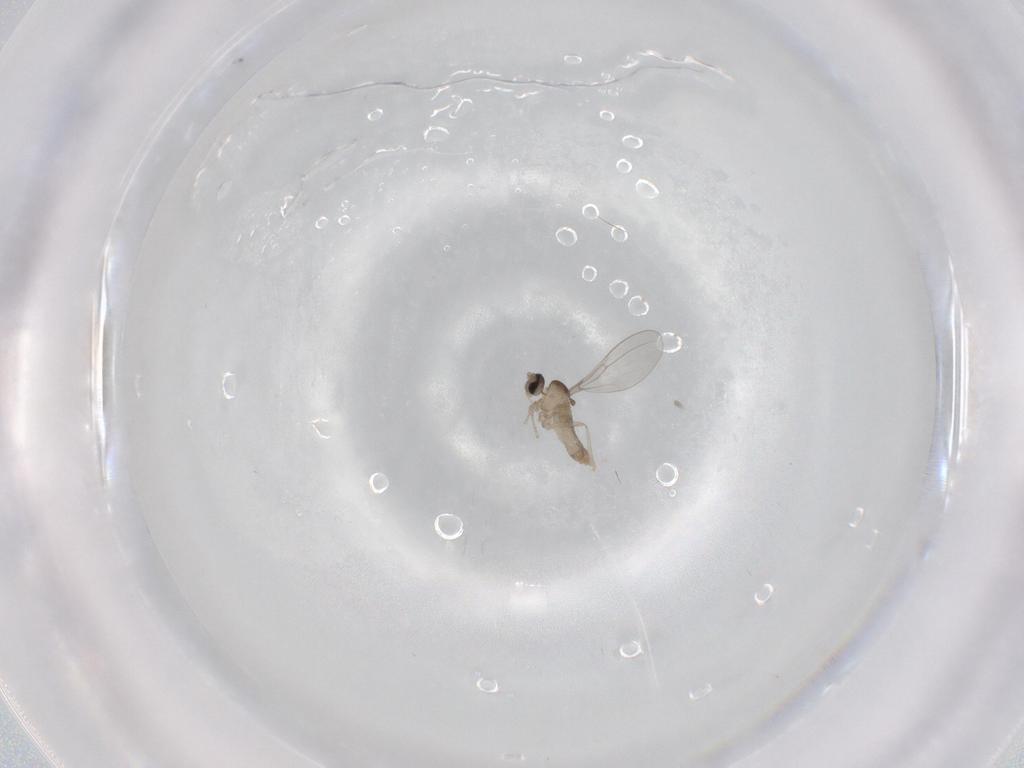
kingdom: Animalia
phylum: Arthropoda
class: Insecta
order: Diptera
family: Cecidomyiidae
